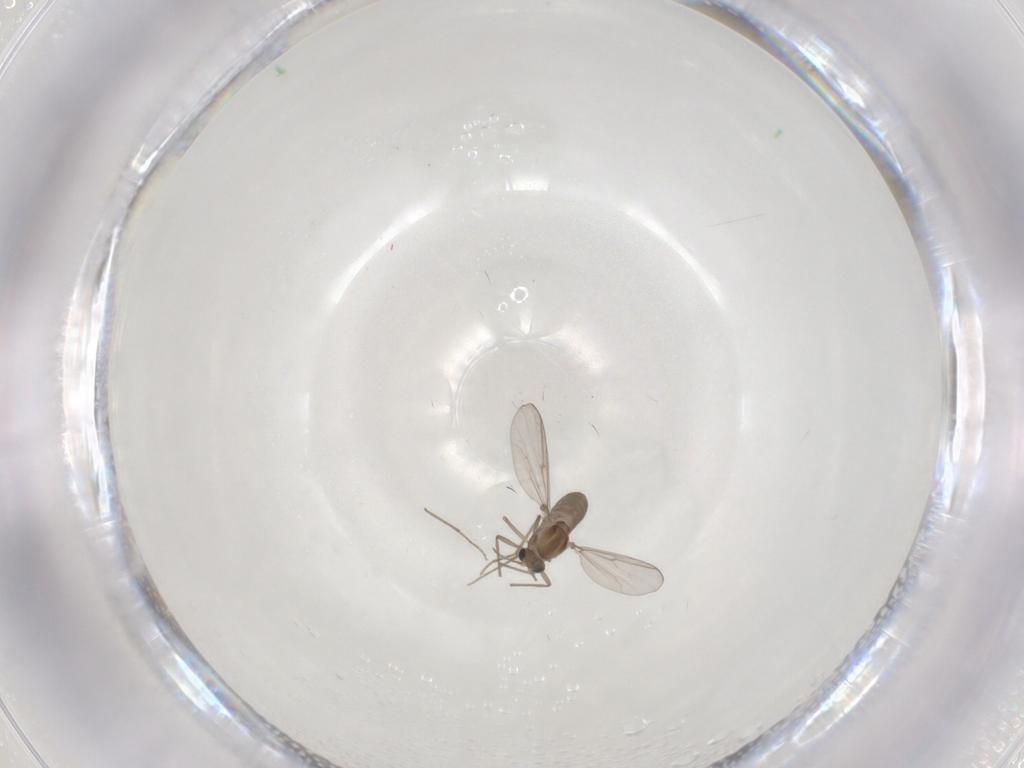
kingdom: Animalia
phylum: Arthropoda
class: Insecta
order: Diptera
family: Chironomidae
